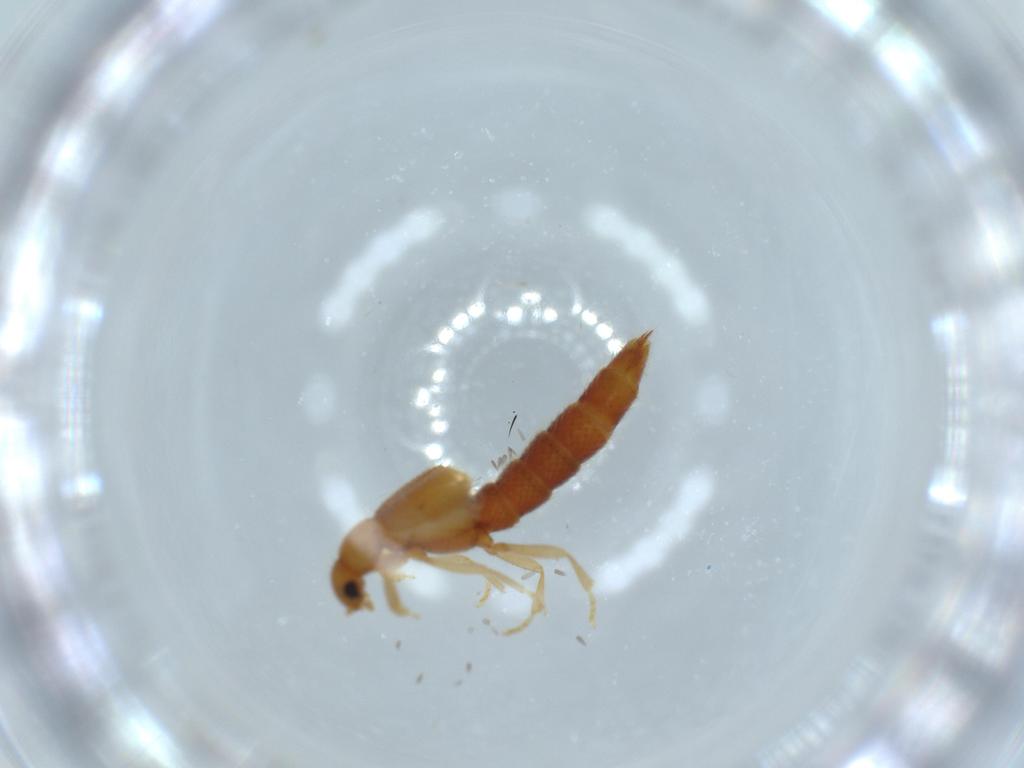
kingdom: Animalia
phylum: Arthropoda
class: Insecta
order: Coleoptera
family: Staphylinidae
